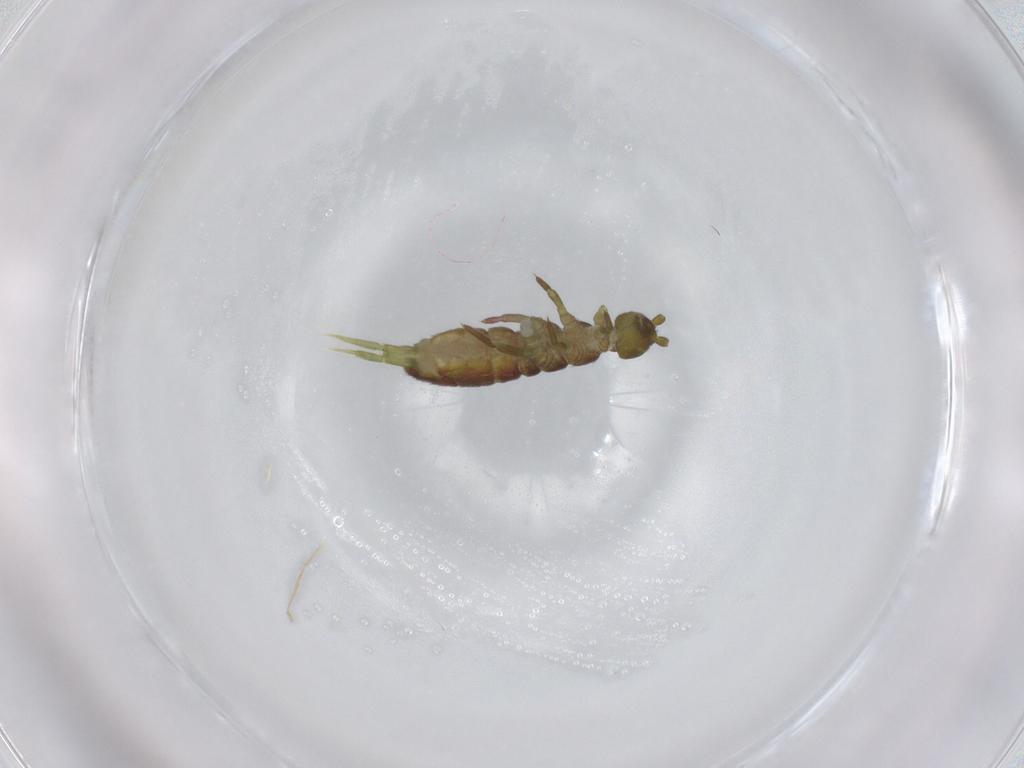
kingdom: Animalia
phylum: Arthropoda
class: Collembola
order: Entomobryomorpha
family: Isotomidae
